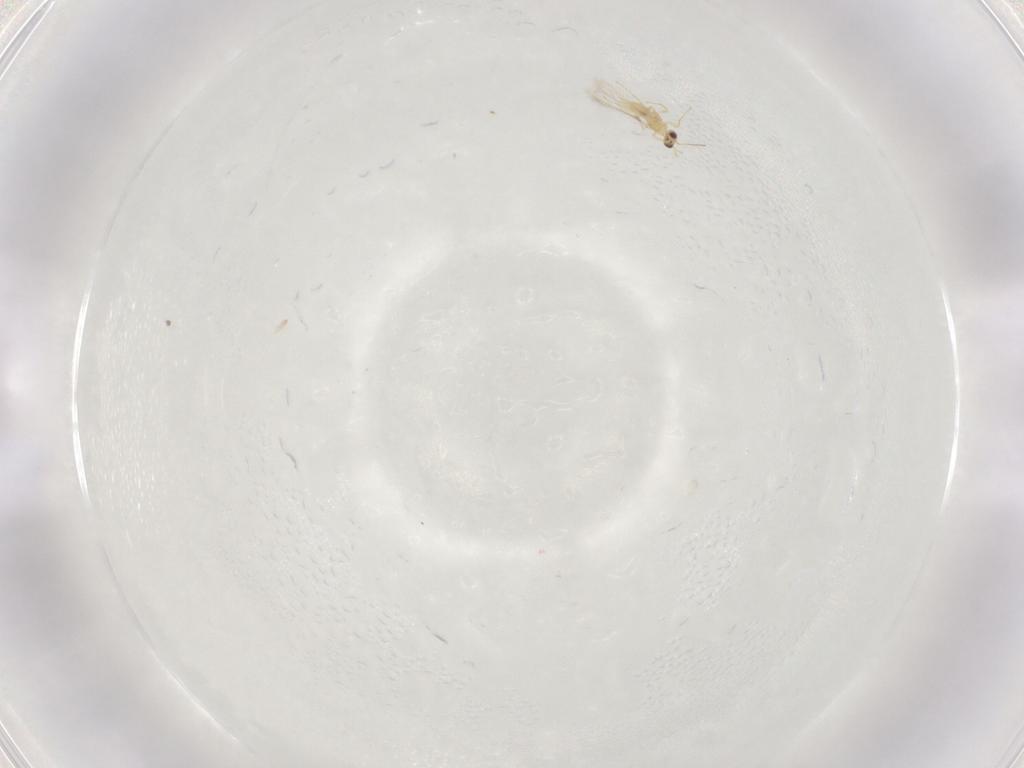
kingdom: Animalia
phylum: Arthropoda
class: Insecta
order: Hymenoptera
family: Mymaridae
